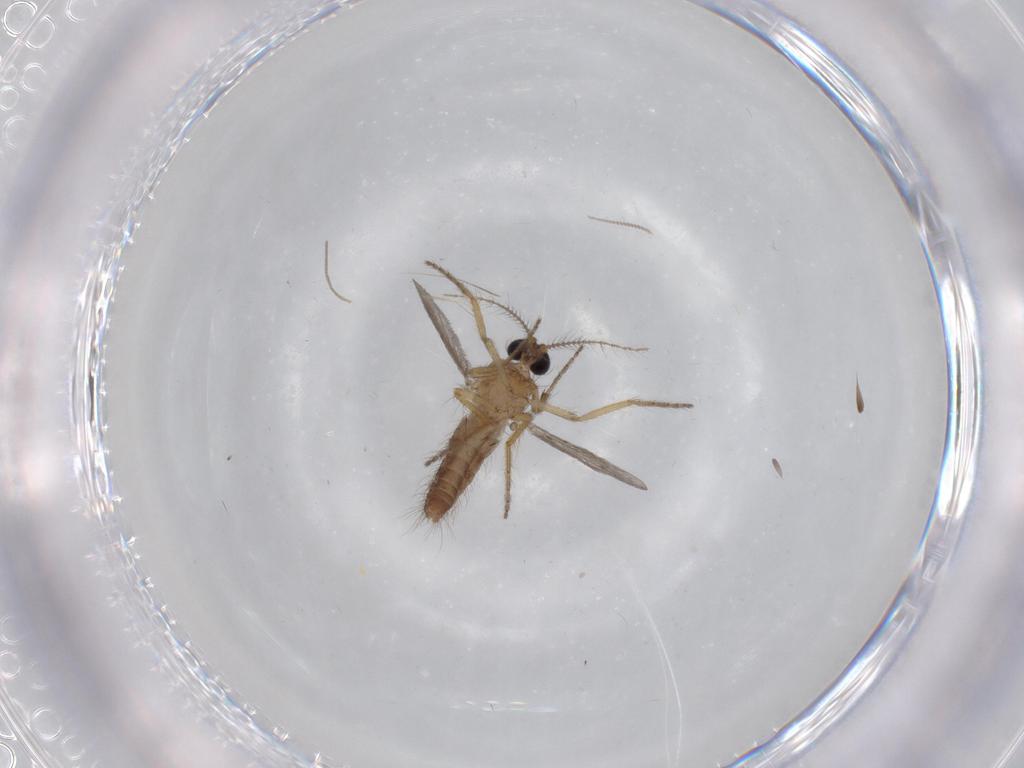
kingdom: Animalia
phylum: Arthropoda
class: Insecta
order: Diptera
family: Ceratopogonidae
